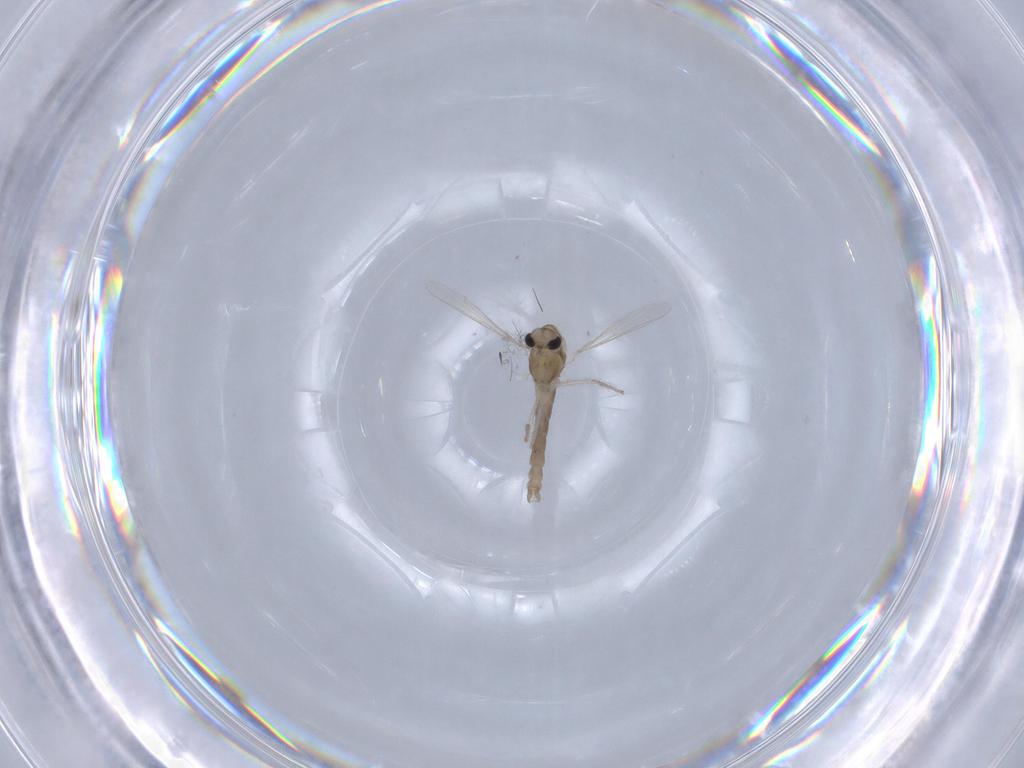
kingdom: Animalia
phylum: Arthropoda
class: Insecta
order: Diptera
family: Chironomidae
